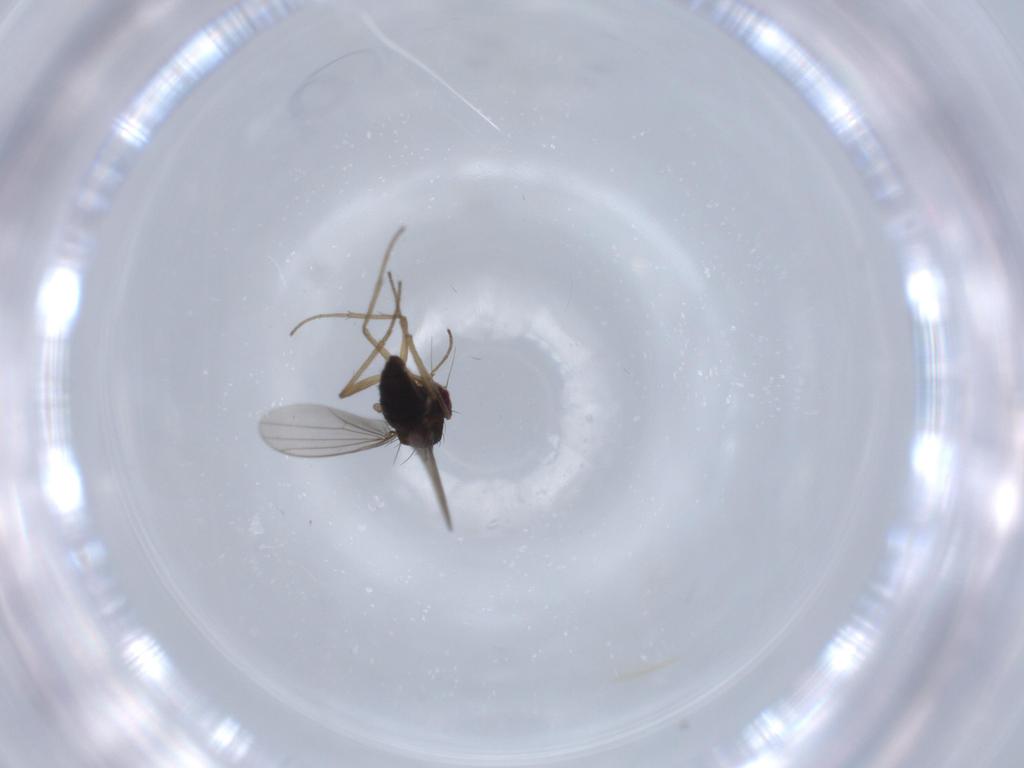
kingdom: Animalia
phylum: Arthropoda
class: Insecta
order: Diptera
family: Dolichopodidae
